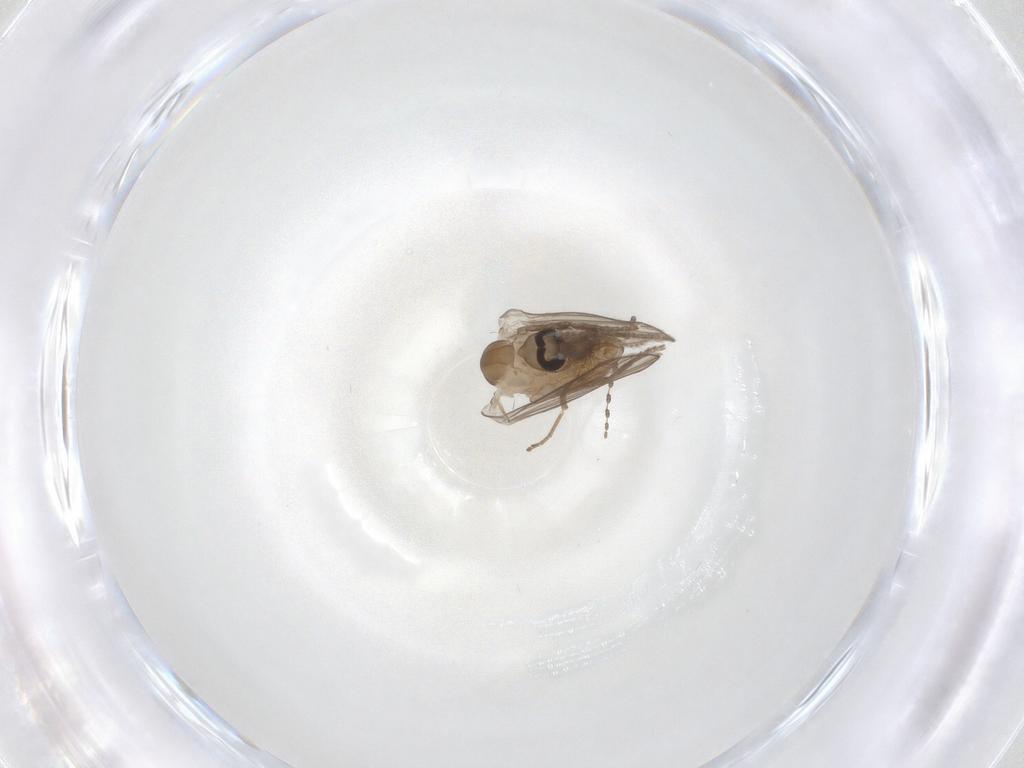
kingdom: Animalia
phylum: Arthropoda
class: Insecta
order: Diptera
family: Psychodidae
